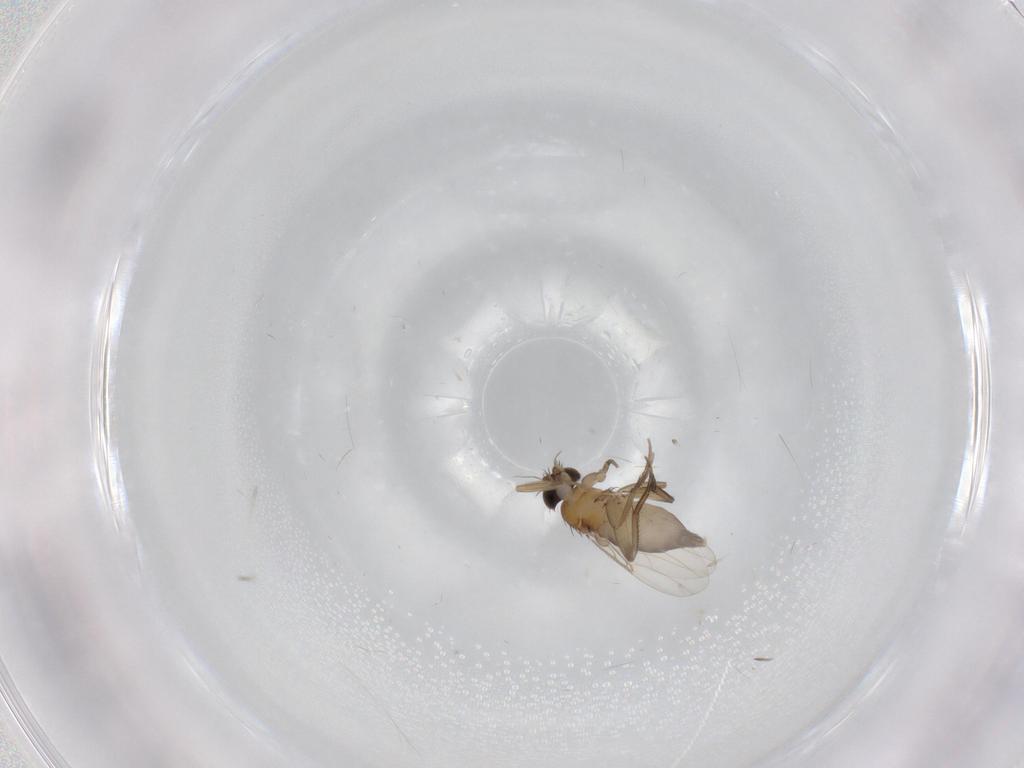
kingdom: Animalia
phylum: Arthropoda
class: Insecta
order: Diptera
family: Phoridae
